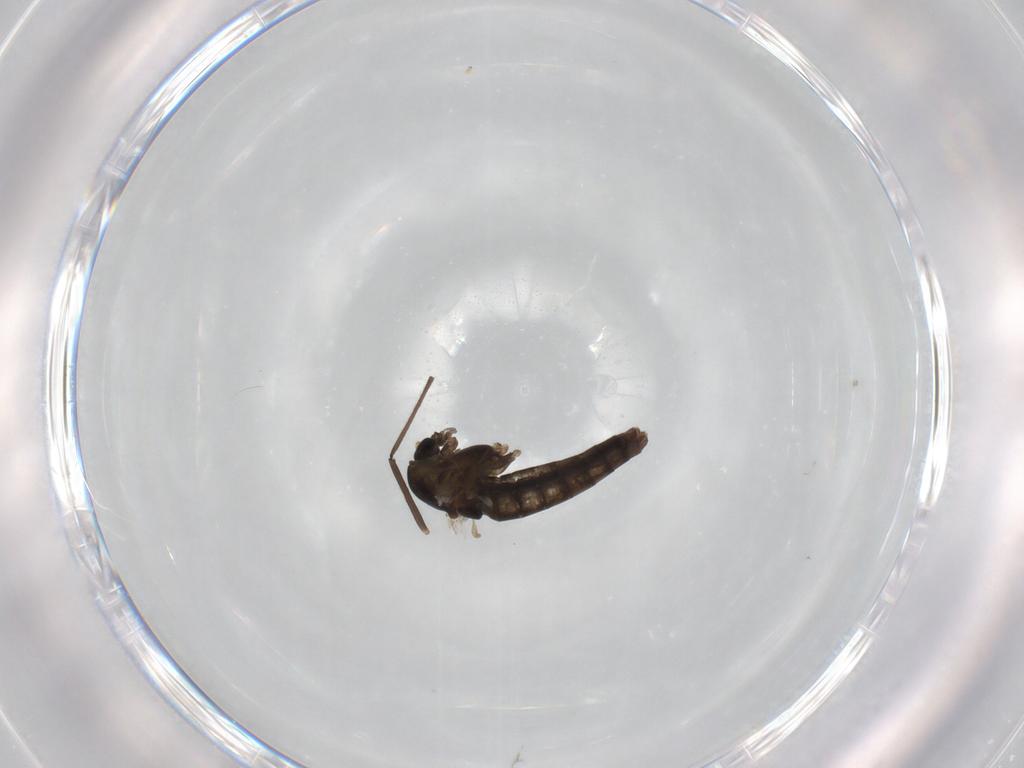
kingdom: Animalia
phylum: Arthropoda
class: Insecta
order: Diptera
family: Chironomidae
